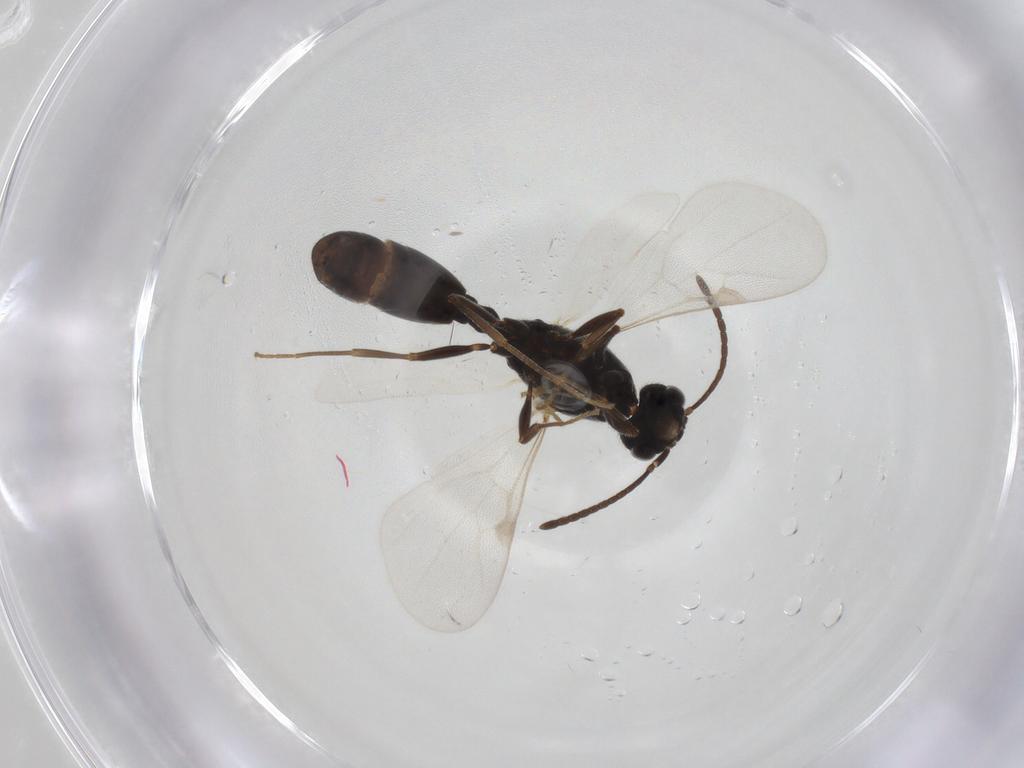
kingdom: Animalia
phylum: Arthropoda
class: Insecta
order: Hymenoptera
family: Formicidae
